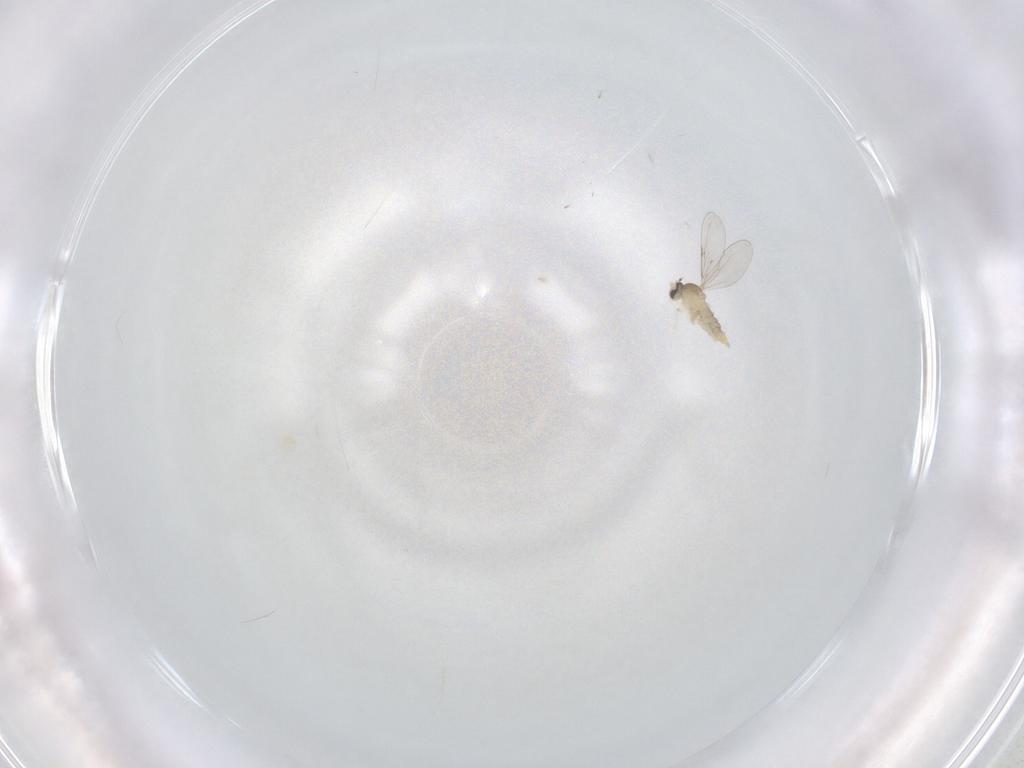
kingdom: Animalia
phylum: Arthropoda
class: Insecta
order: Diptera
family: Cecidomyiidae
